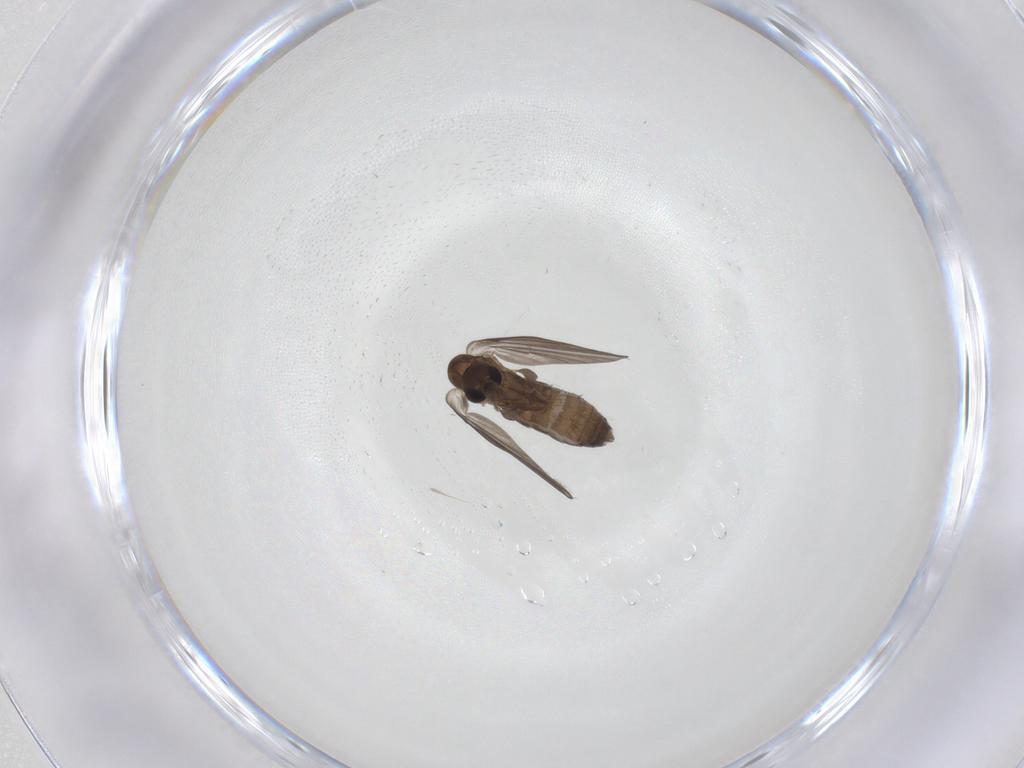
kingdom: Animalia
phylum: Arthropoda
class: Insecta
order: Diptera
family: Psychodidae
